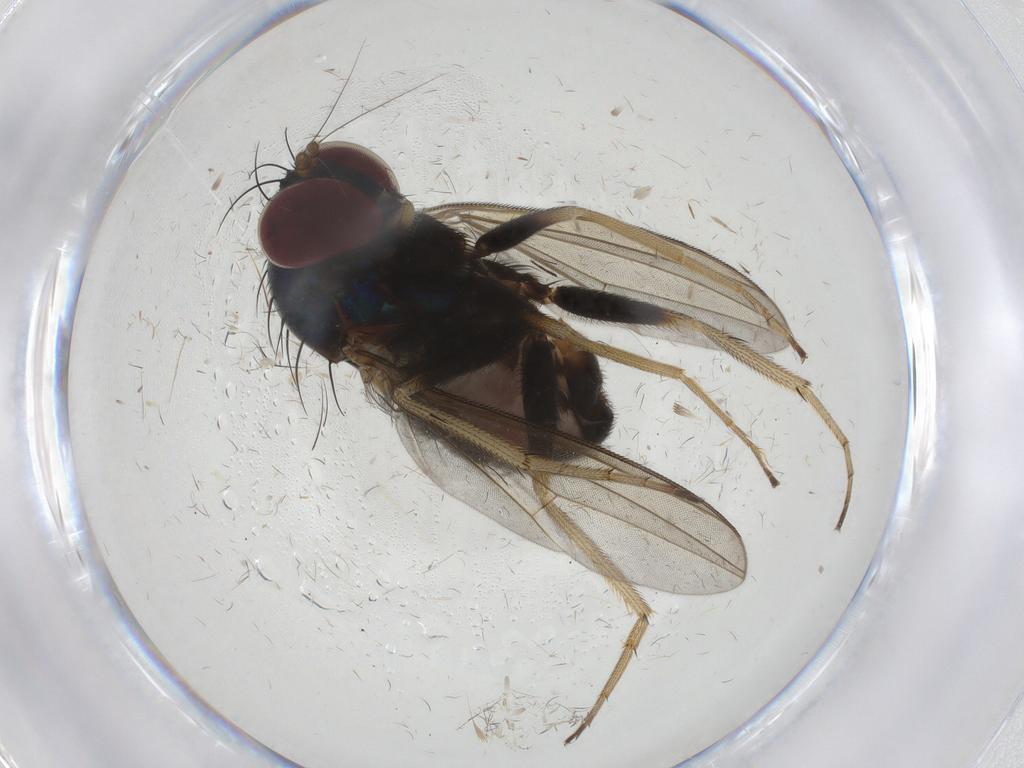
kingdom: Animalia
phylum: Arthropoda
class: Insecta
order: Diptera
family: Dolichopodidae
